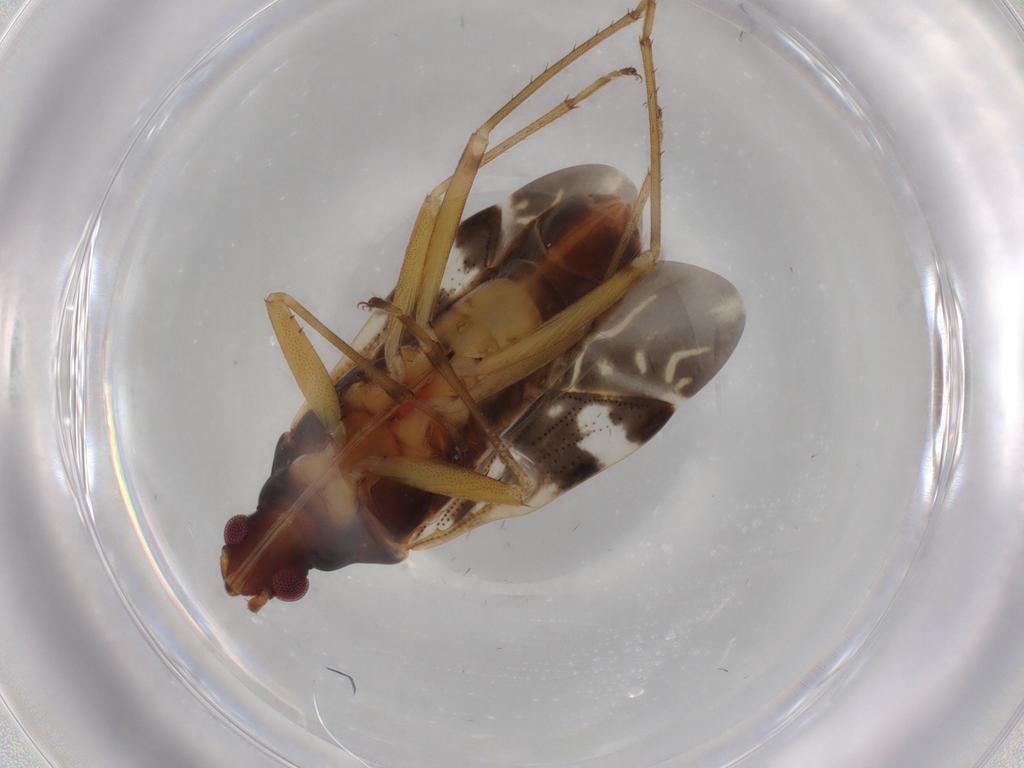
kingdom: Animalia
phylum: Arthropoda
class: Insecta
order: Hemiptera
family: Rhyparochromidae
